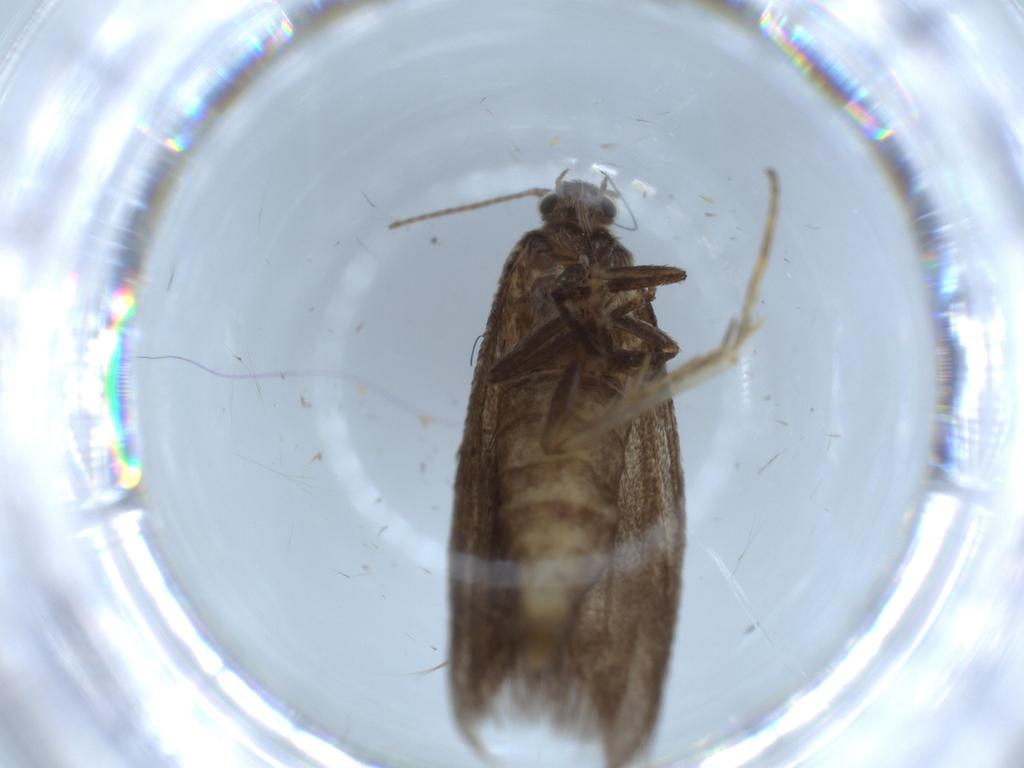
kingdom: Animalia
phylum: Arthropoda
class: Insecta
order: Lepidoptera
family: Oecophoridae
